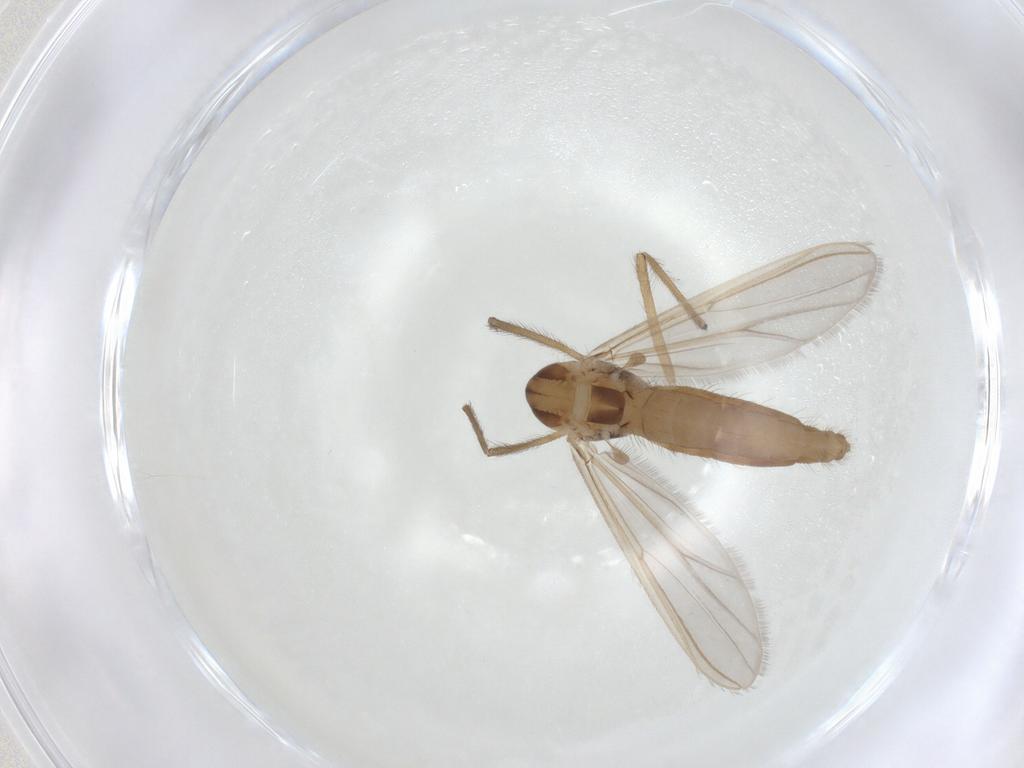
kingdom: Animalia
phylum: Arthropoda
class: Insecta
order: Diptera
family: Chironomidae
